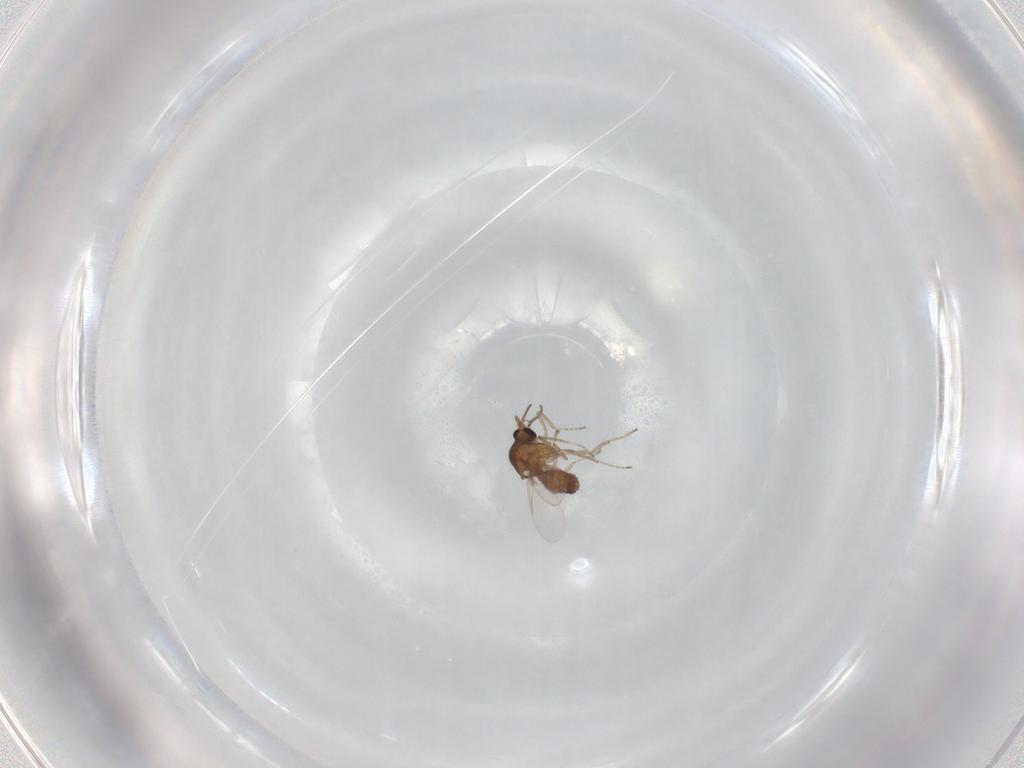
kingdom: Animalia
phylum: Arthropoda
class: Insecta
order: Diptera
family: Ceratopogonidae
